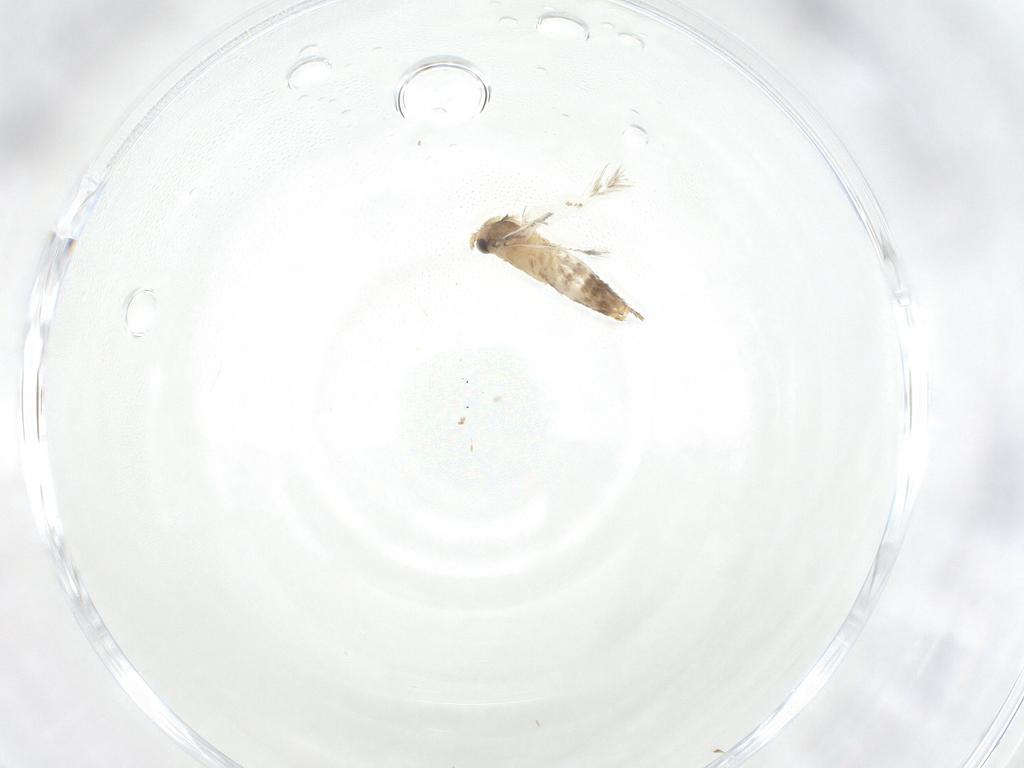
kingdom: Animalia
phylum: Arthropoda
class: Insecta
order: Lepidoptera
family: Nepticulidae
